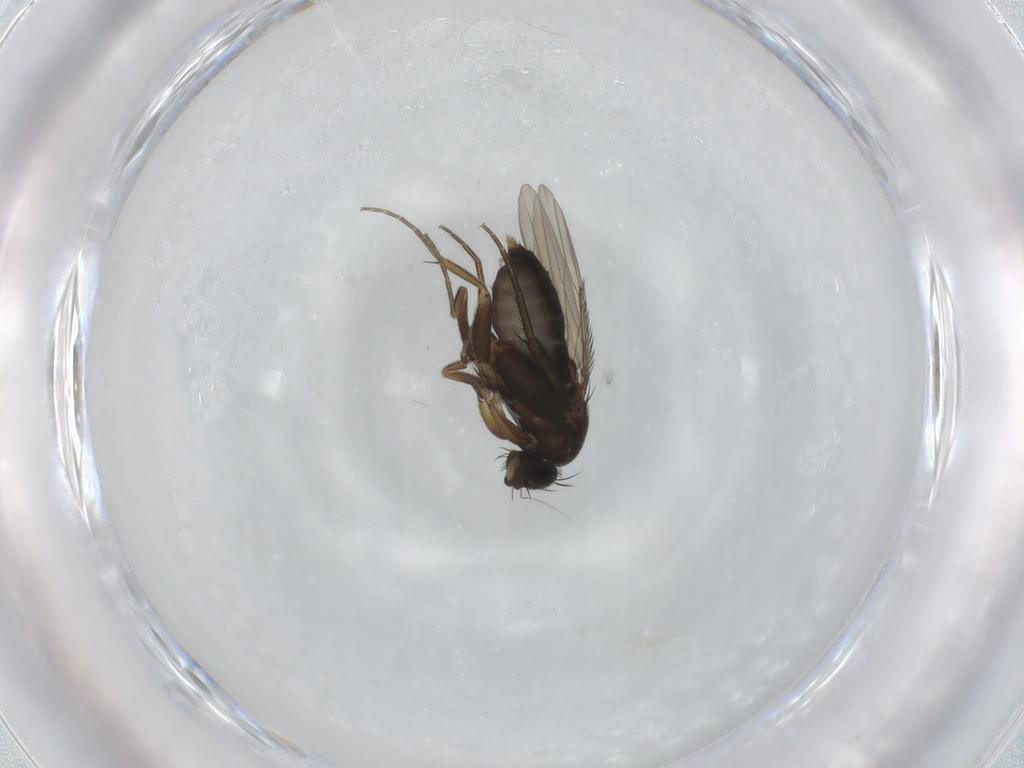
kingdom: Animalia
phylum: Arthropoda
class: Insecta
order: Diptera
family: Phoridae
